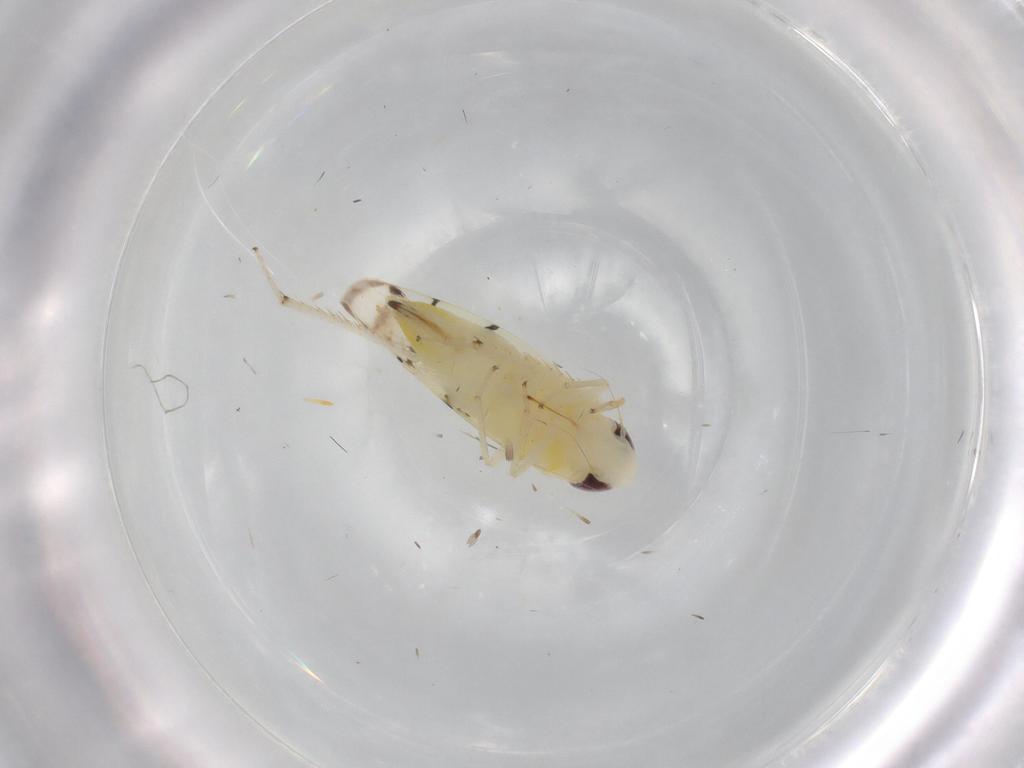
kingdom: Animalia
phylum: Arthropoda
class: Insecta
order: Hemiptera
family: Cicadellidae
